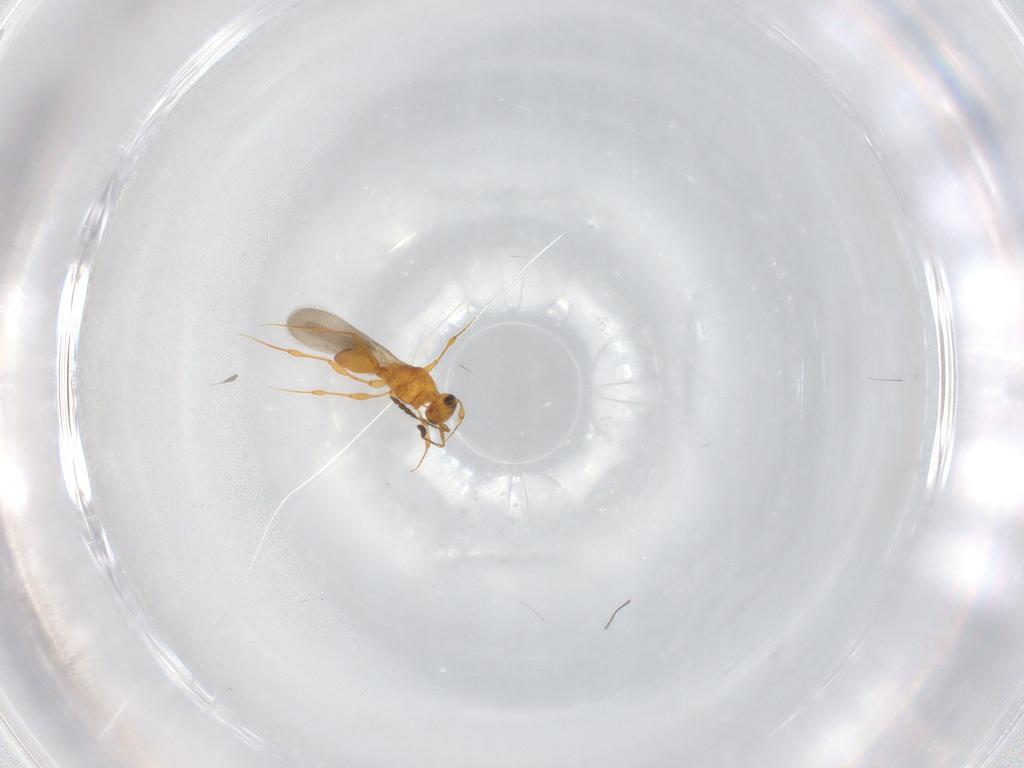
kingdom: Animalia
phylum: Arthropoda
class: Insecta
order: Hymenoptera
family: Platygastridae
